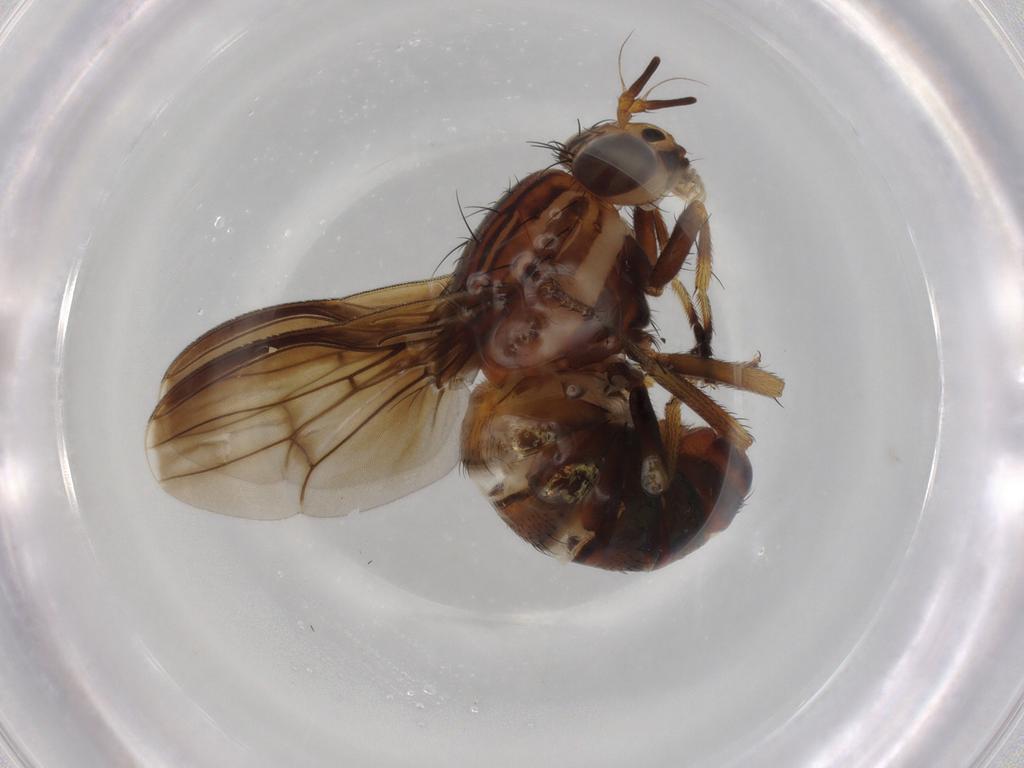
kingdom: Animalia
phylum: Arthropoda
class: Insecta
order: Diptera
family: Lauxaniidae
